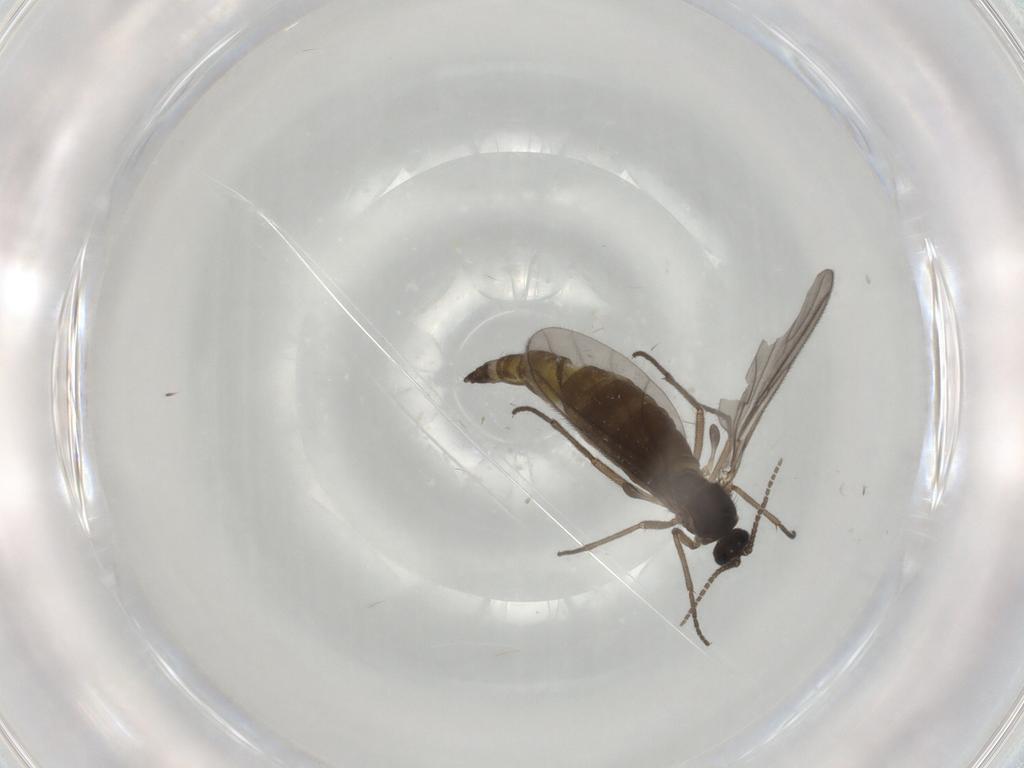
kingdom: Animalia
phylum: Arthropoda
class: Insecta
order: Diptera
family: Sciaridae
